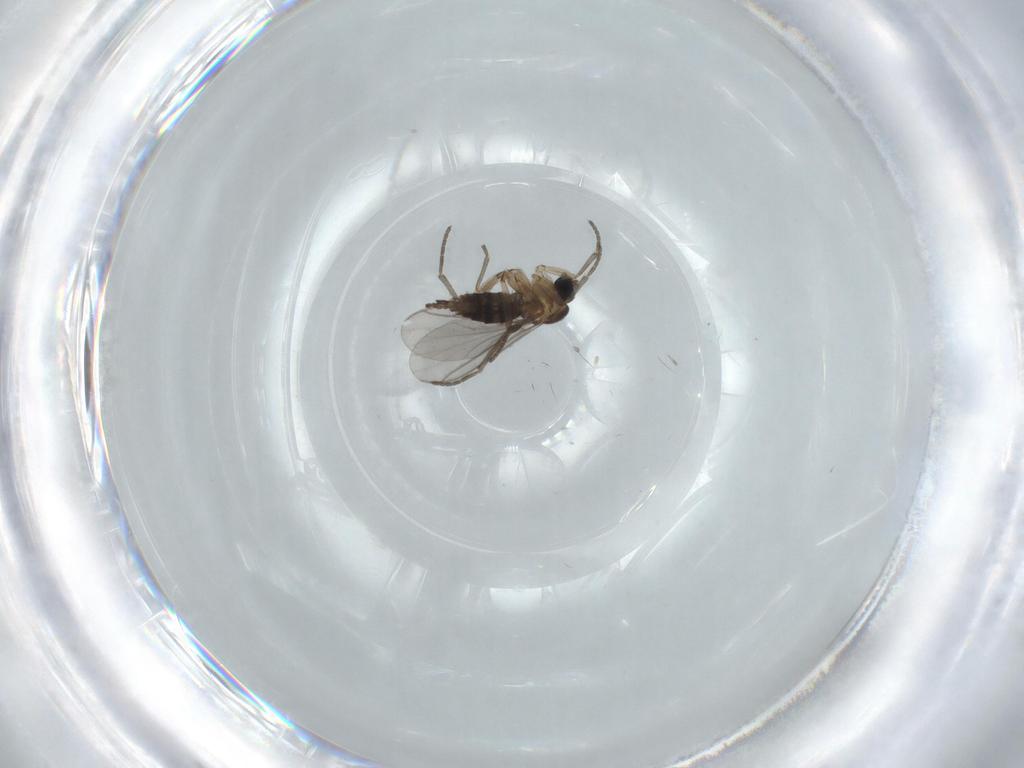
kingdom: Animalia
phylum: Arthropoda
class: Insecta
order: Diptera
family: Sciaridae
